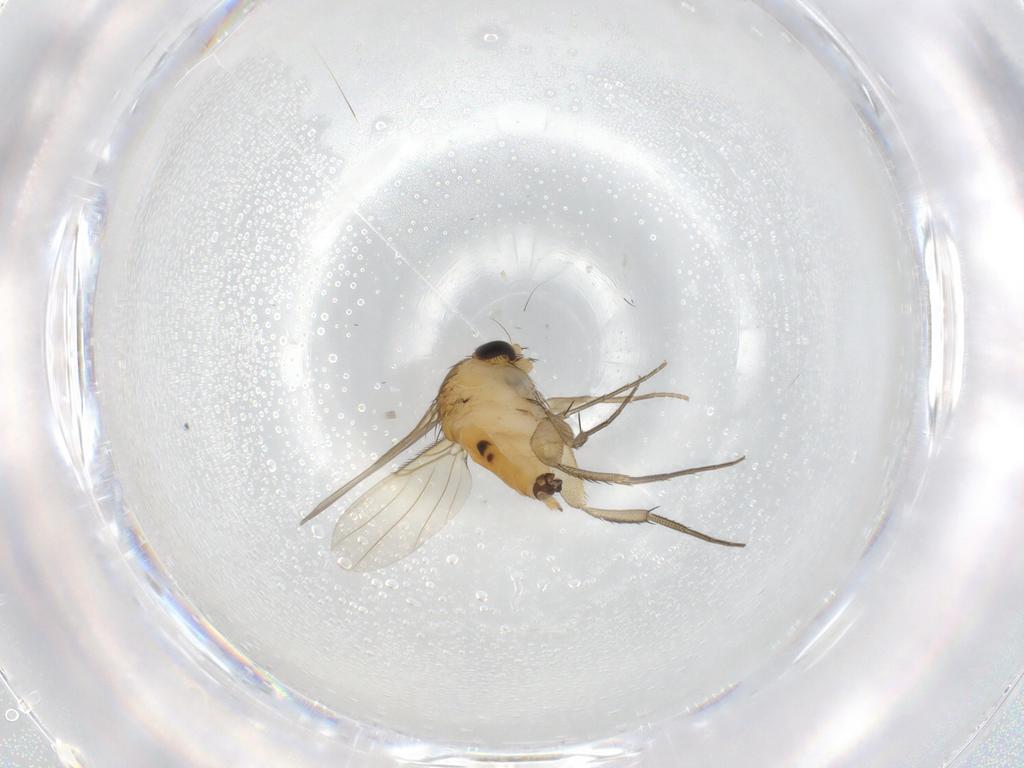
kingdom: Animalia
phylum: Arthropoda
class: Insecta
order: Diptera
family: Phoridae
